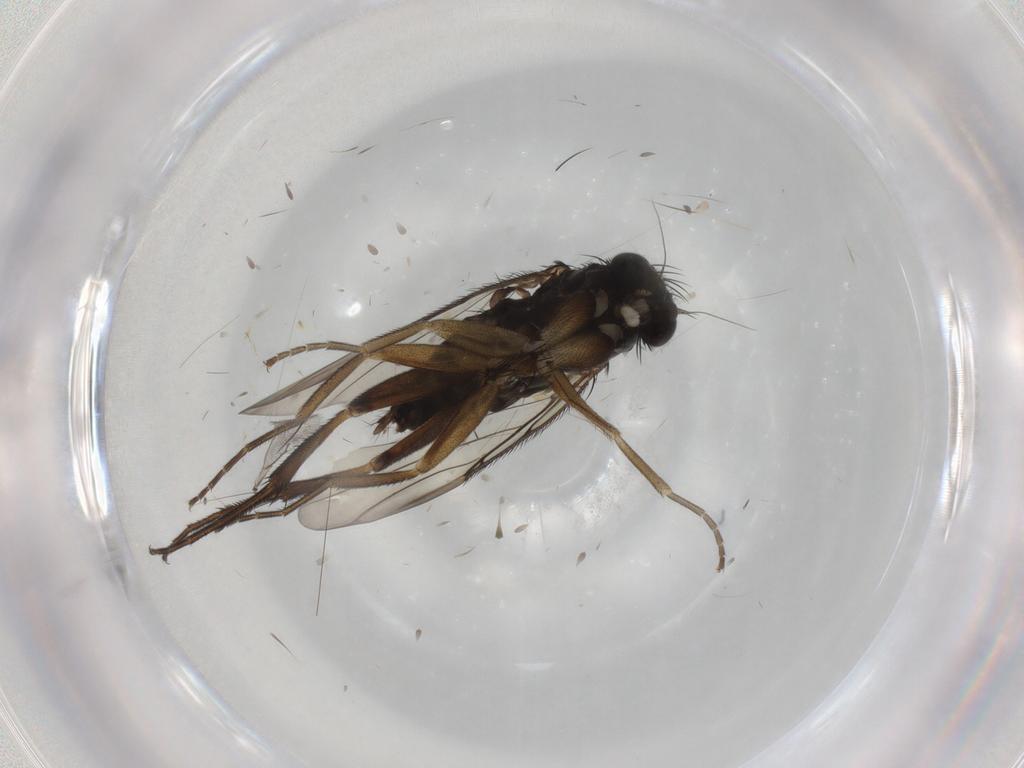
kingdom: Animalia
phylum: Arthropoda
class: Insecta
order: Diptera
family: Phoridae
